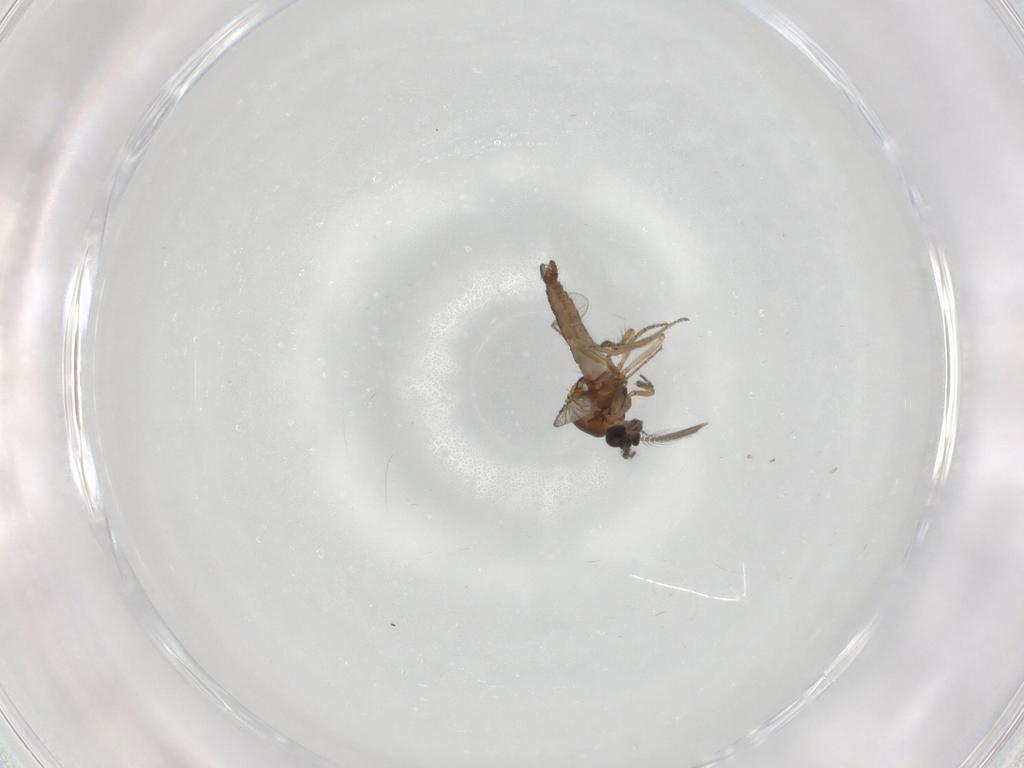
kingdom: Animalia
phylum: Arthropoda
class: Insecta
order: Diptera
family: Ceratopogonidae
